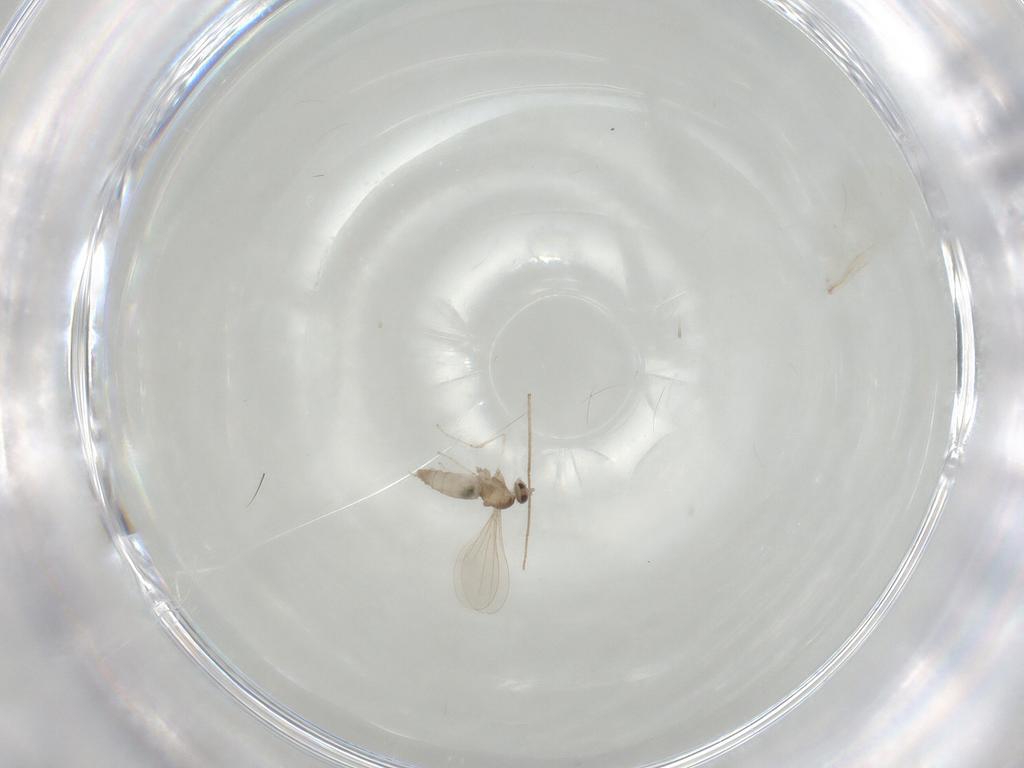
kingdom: Animalia
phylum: Arthropoda
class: Insecta
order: Diptera
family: Cecidomyiidae
